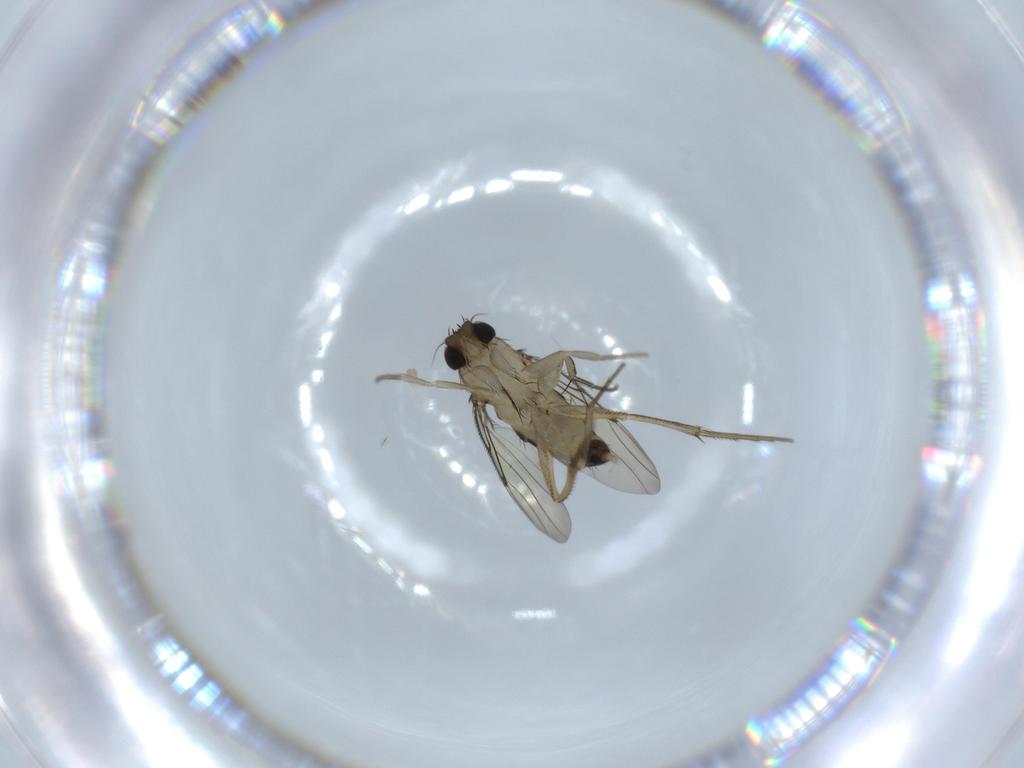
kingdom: Animalia
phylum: Arthropoda
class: Insecta
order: Diptera
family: Phoridae
